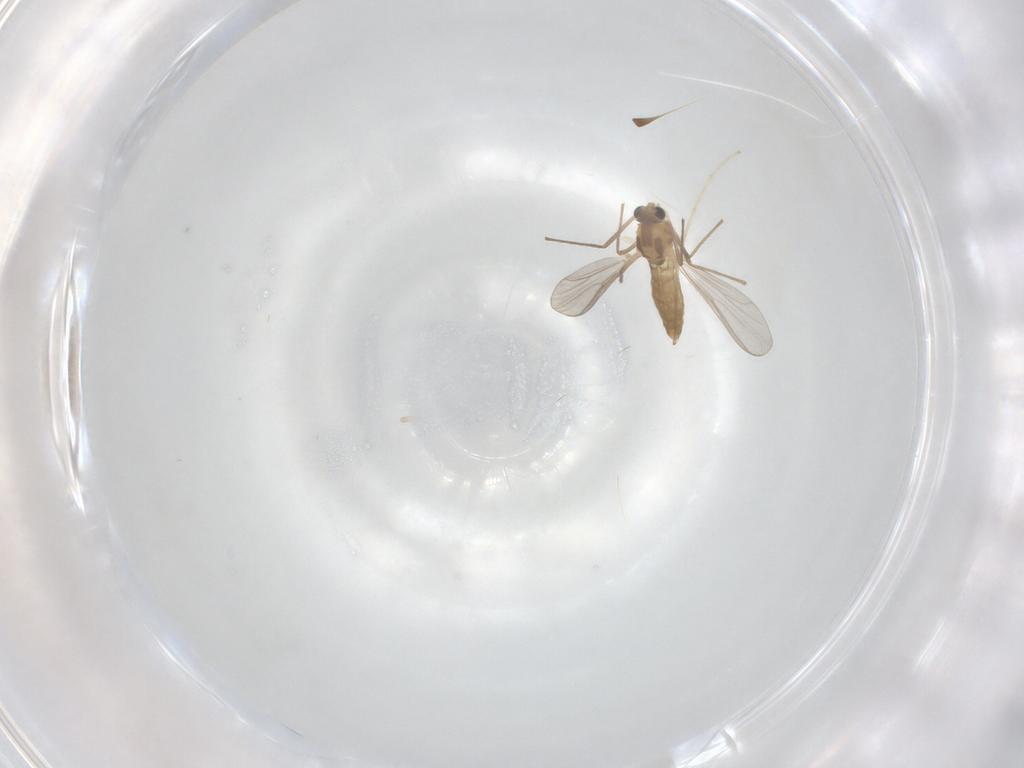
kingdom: Animalia
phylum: Arthropoda
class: Insecta
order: Diptera
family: Chironomidae
